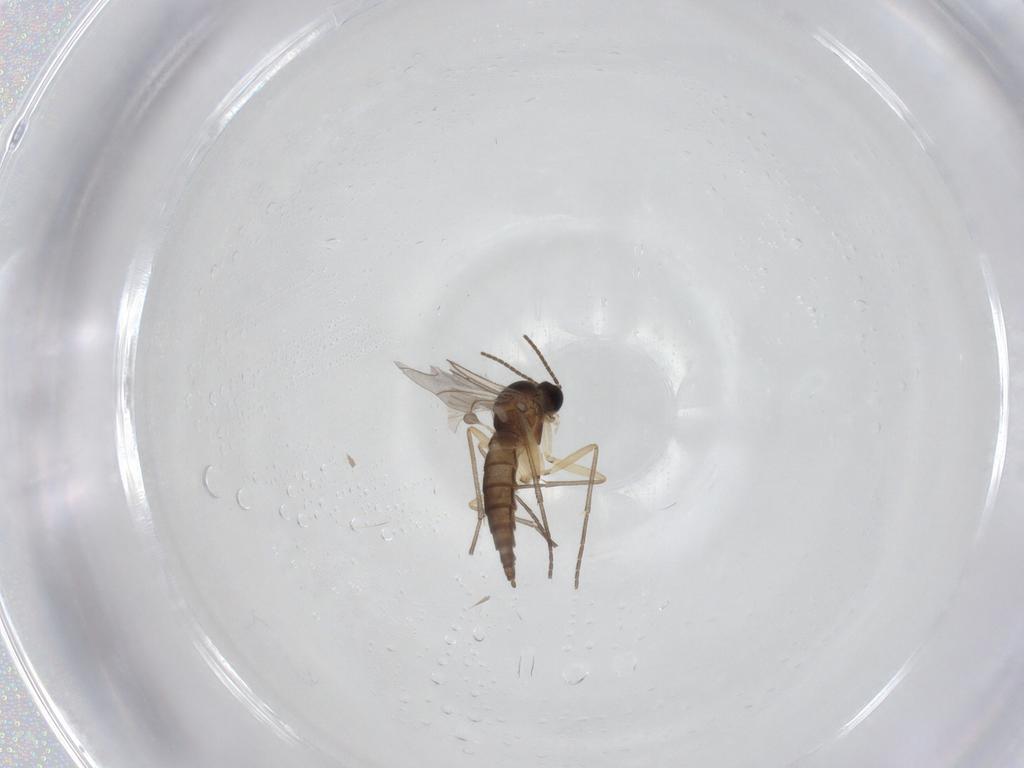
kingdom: Animalia
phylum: Arthropoda
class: Insecta
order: Diptera
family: Sciaridae
